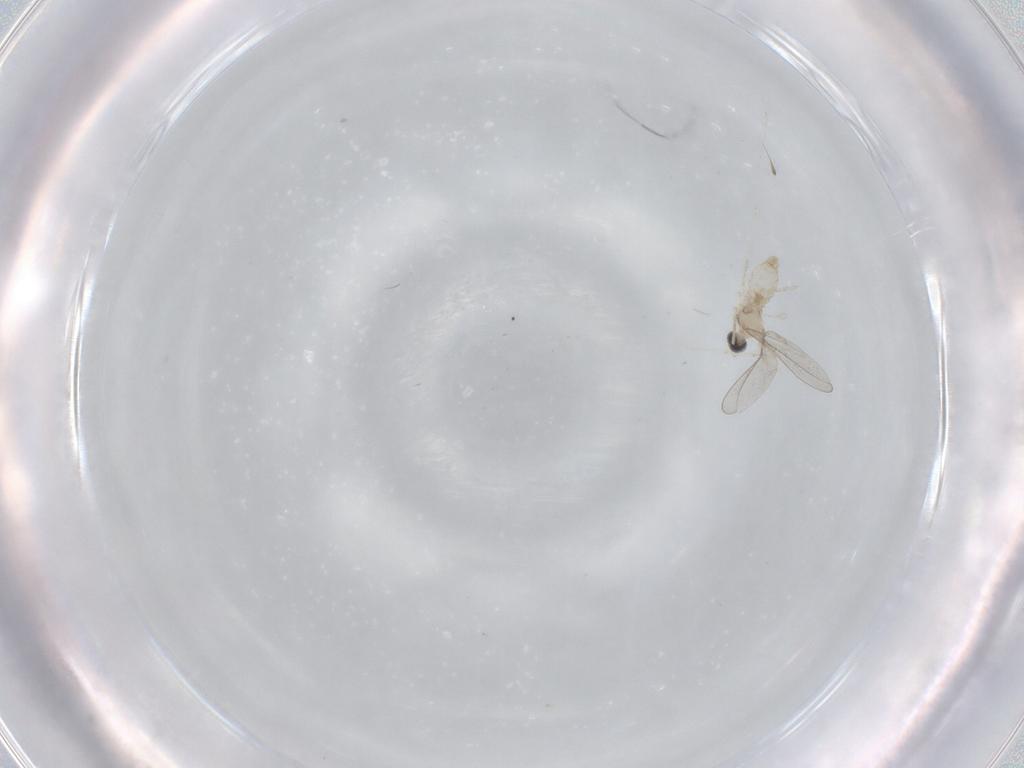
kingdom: Animalia
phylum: Arthropoda
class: Insecta
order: Diptera
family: Cecidomyiidae
